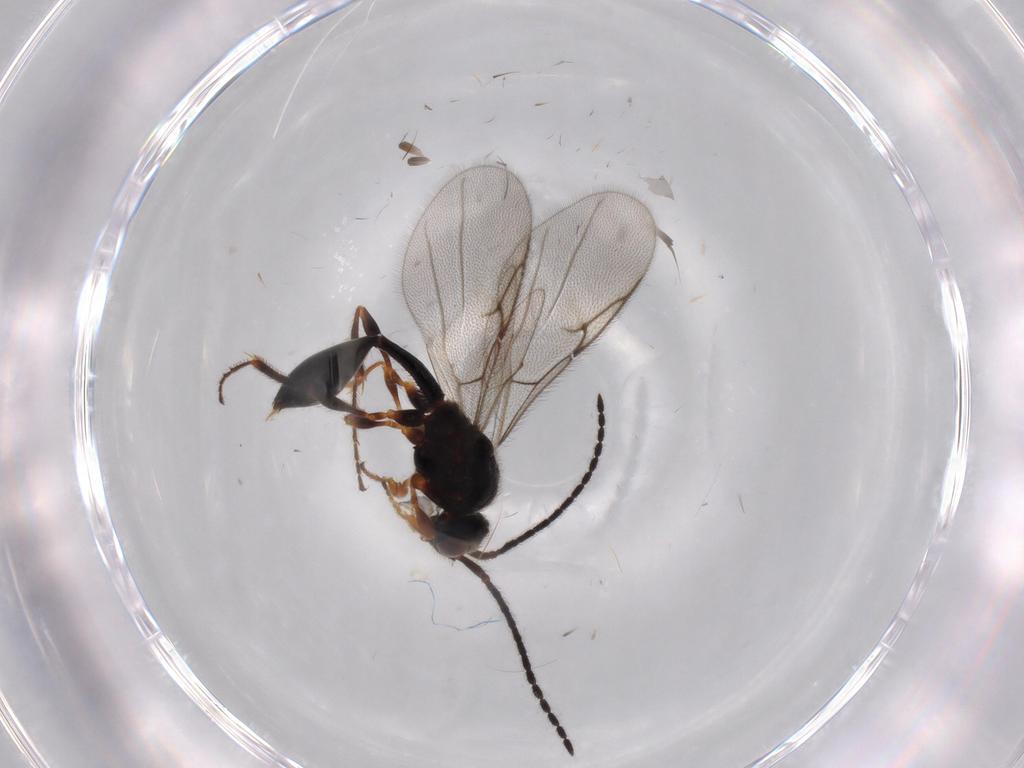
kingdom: Animalia
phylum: Arthropoda
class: Insecta
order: Hymenoptera
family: Diapriidae
